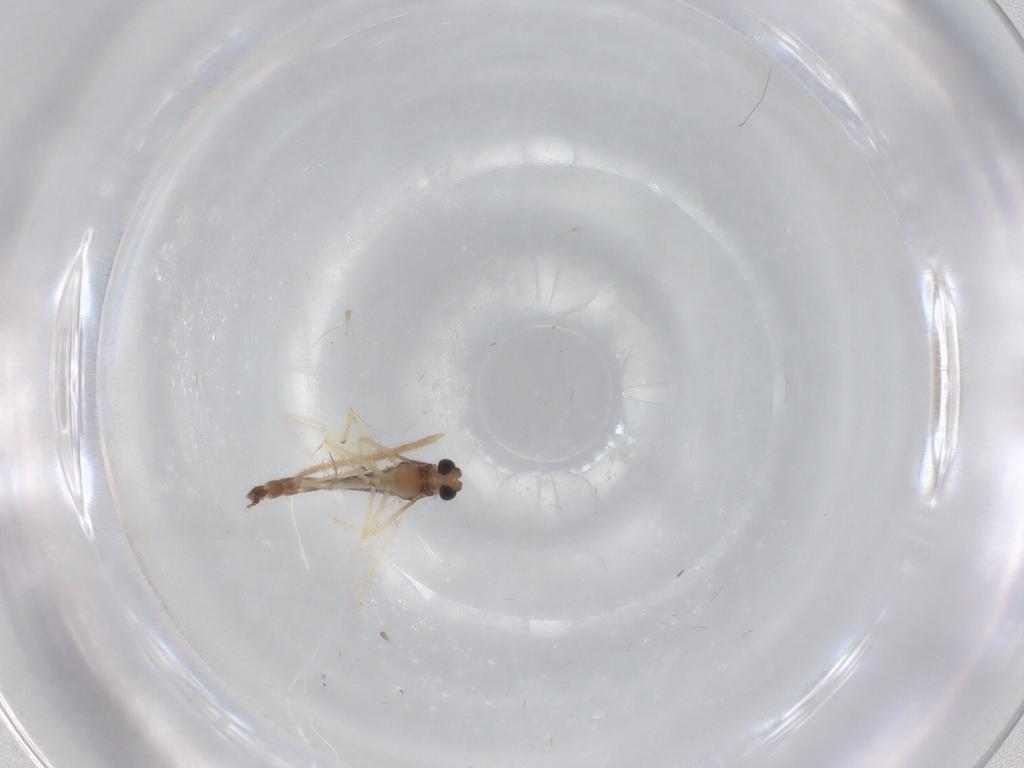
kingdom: Animalia
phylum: Arthropoda
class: Insecta
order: Diptera
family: Chironomidae
